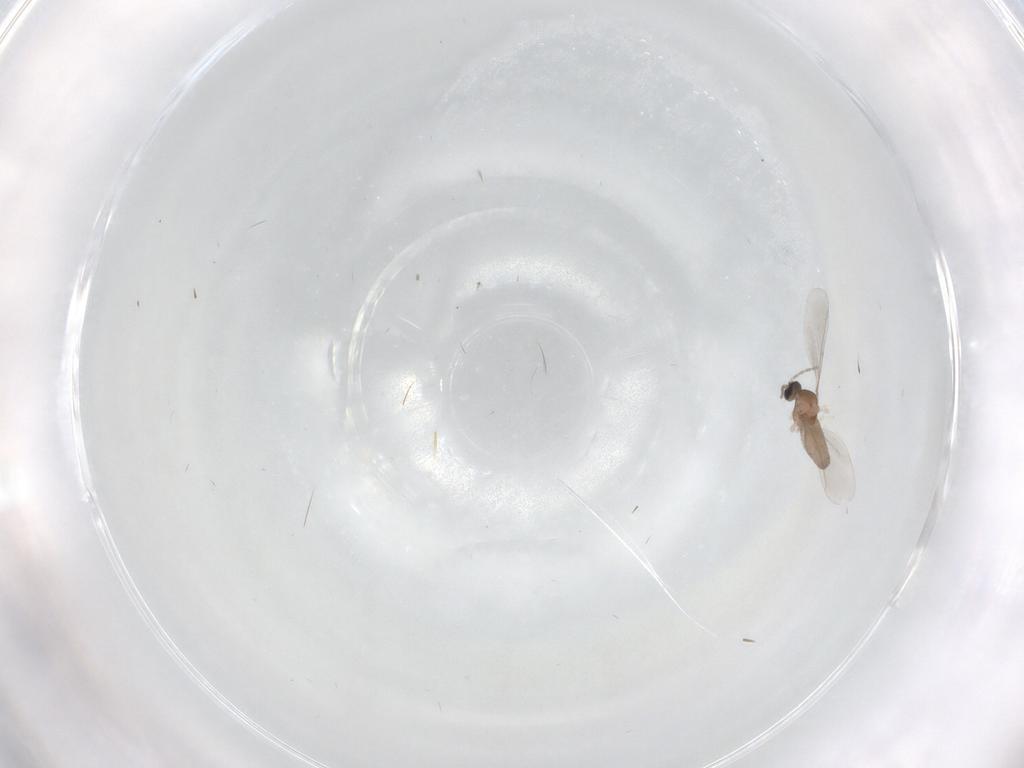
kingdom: Animalia
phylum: Arthropoda
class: Insecta
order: Diptera
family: Cecidomyiidae
